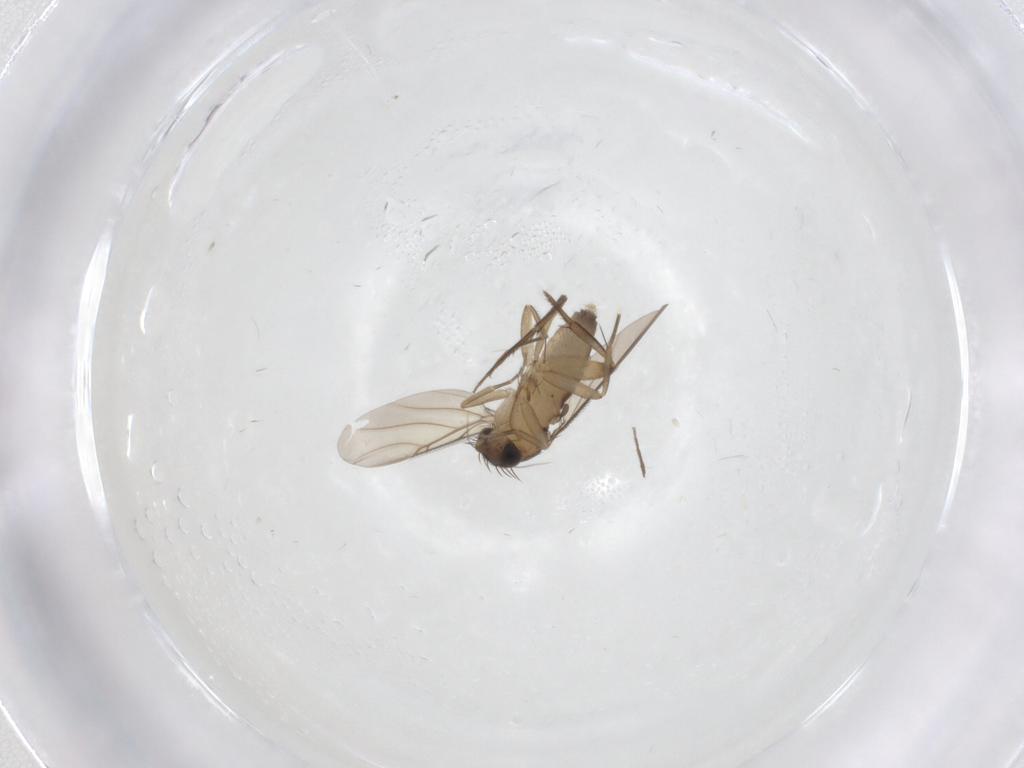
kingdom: Animalia
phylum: Arthropoda
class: Insecta
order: Diptera
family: Phoridae
